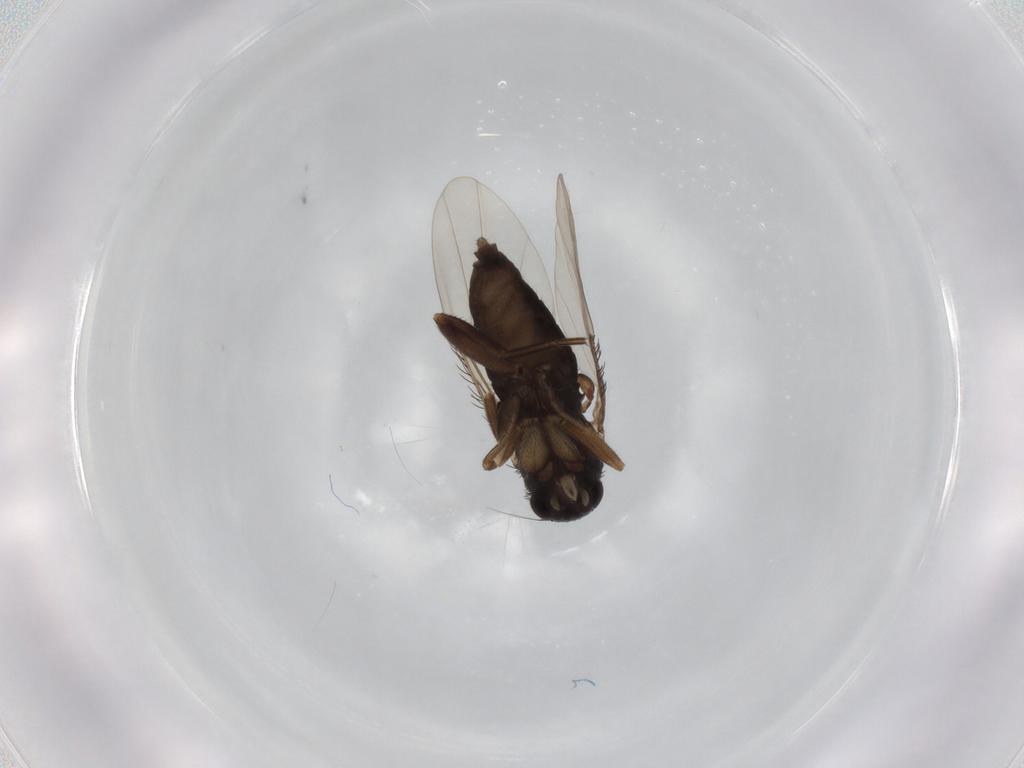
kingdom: Animalia
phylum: Arthropoda
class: Insecta
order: Diptera
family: Phoridae
